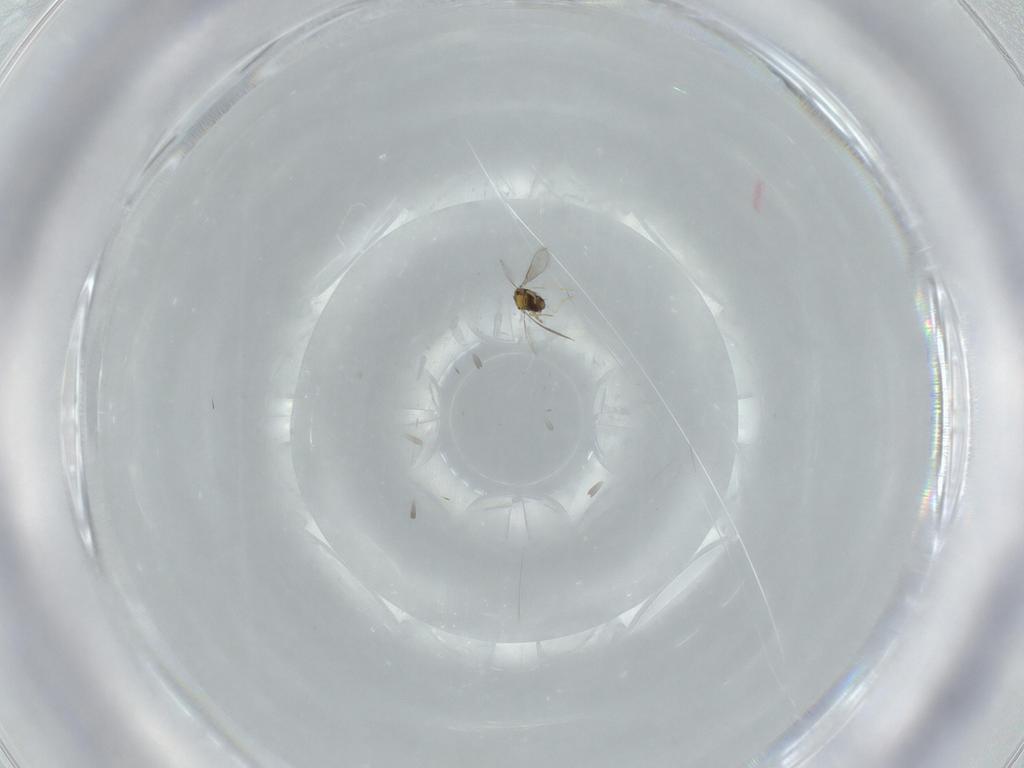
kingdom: Animalia
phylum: Arthropoda
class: Insecta
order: Hymenoptera
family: Aphelinidae
